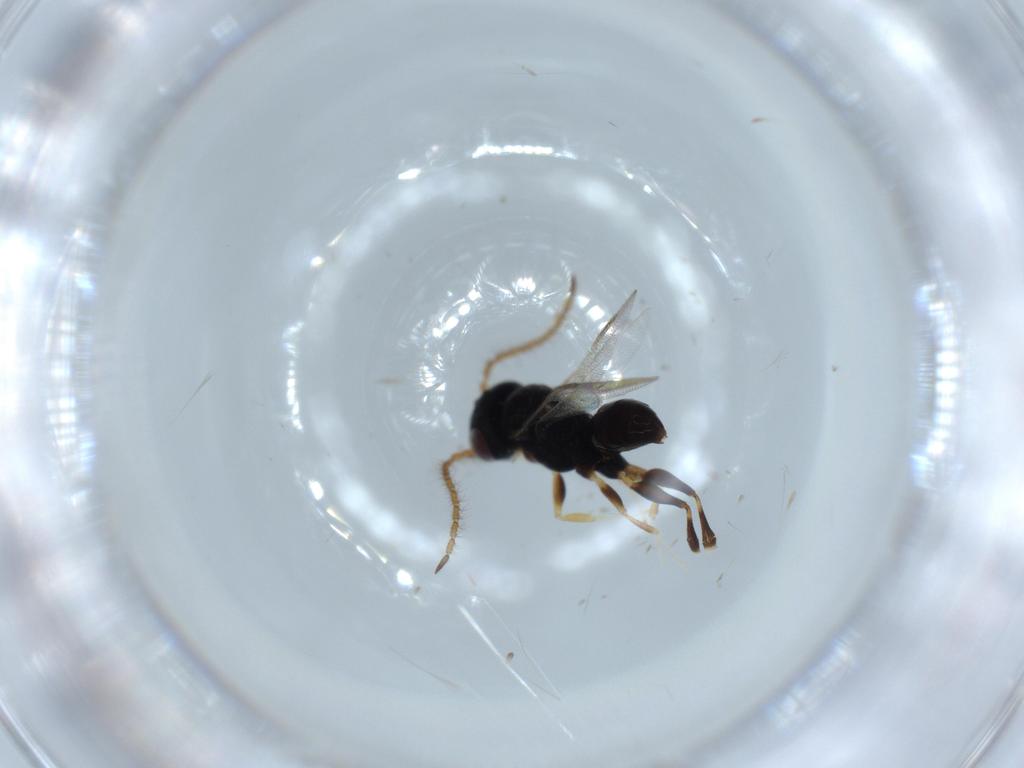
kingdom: Animalia
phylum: Arthropoda
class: Insecta
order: Hymenoptera
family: Dryinidae
